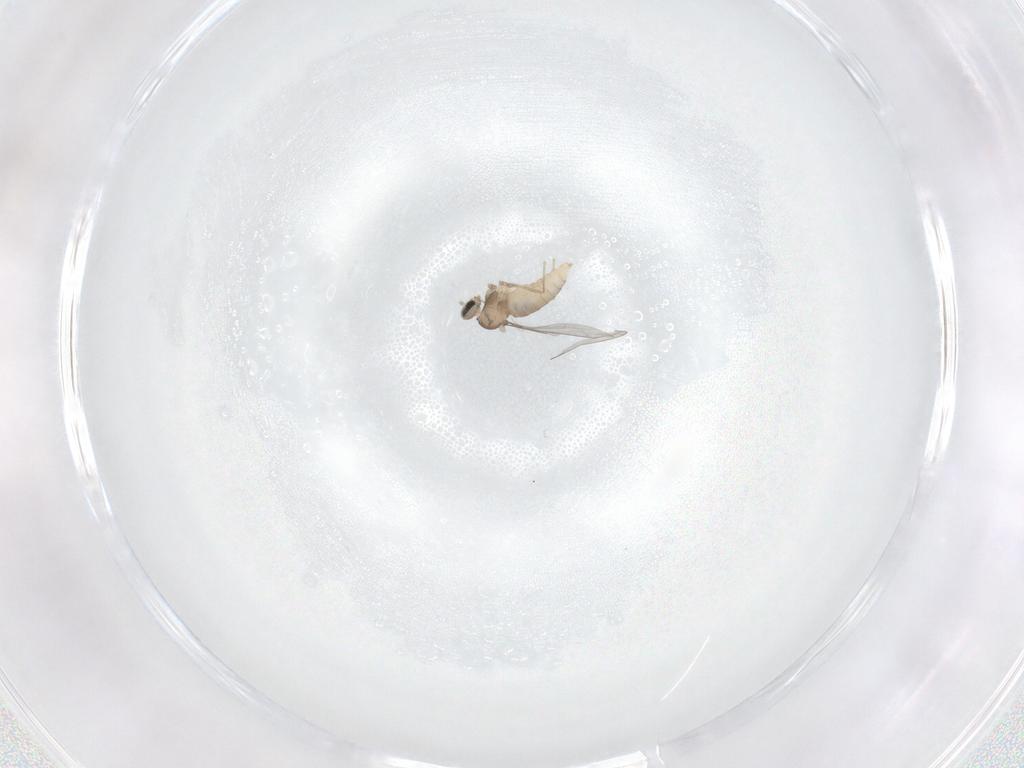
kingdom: Animalia
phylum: Arthropoda
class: Insecta
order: Diptera
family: Cecidomyiidae
